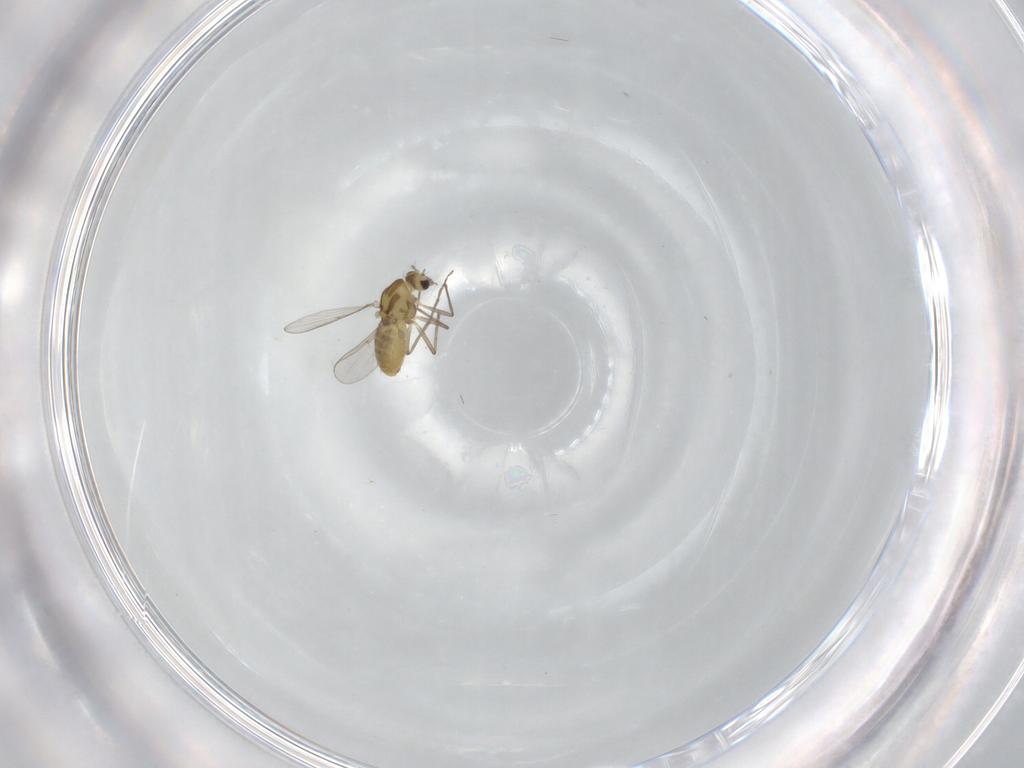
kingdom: Animalia
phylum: Arthropoda
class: Insecta
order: Diptera
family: Chironomidae
